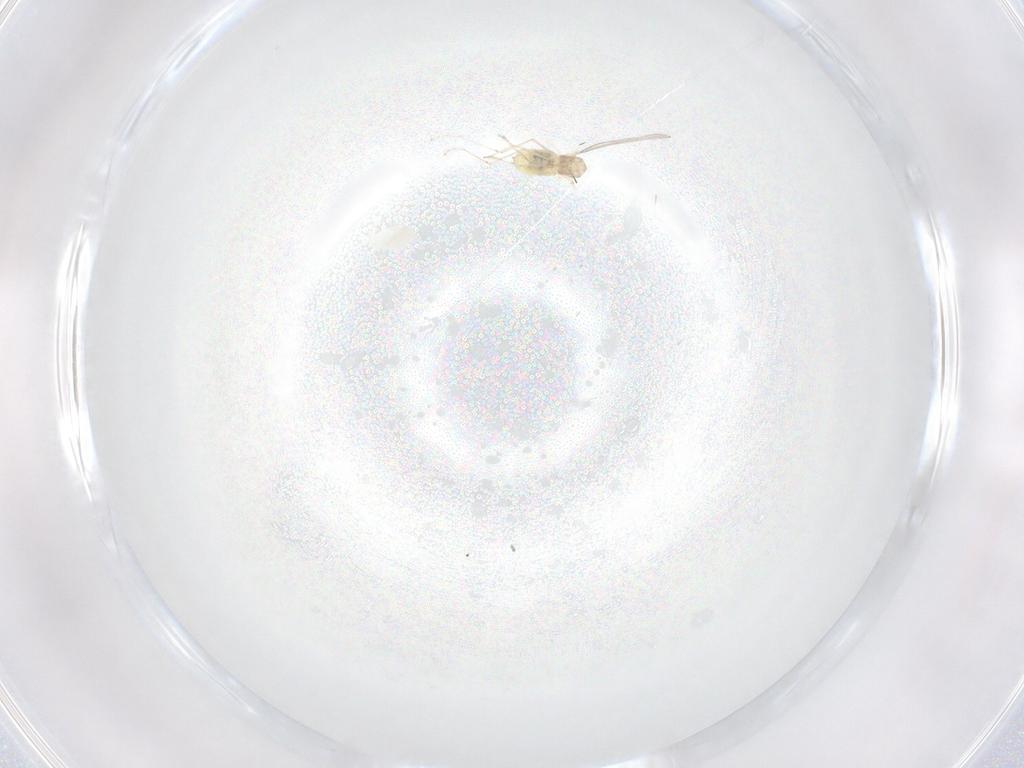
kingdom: Animalia
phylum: Arthropoda
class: Insecta
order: Diptera
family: Cecidomyiidae
